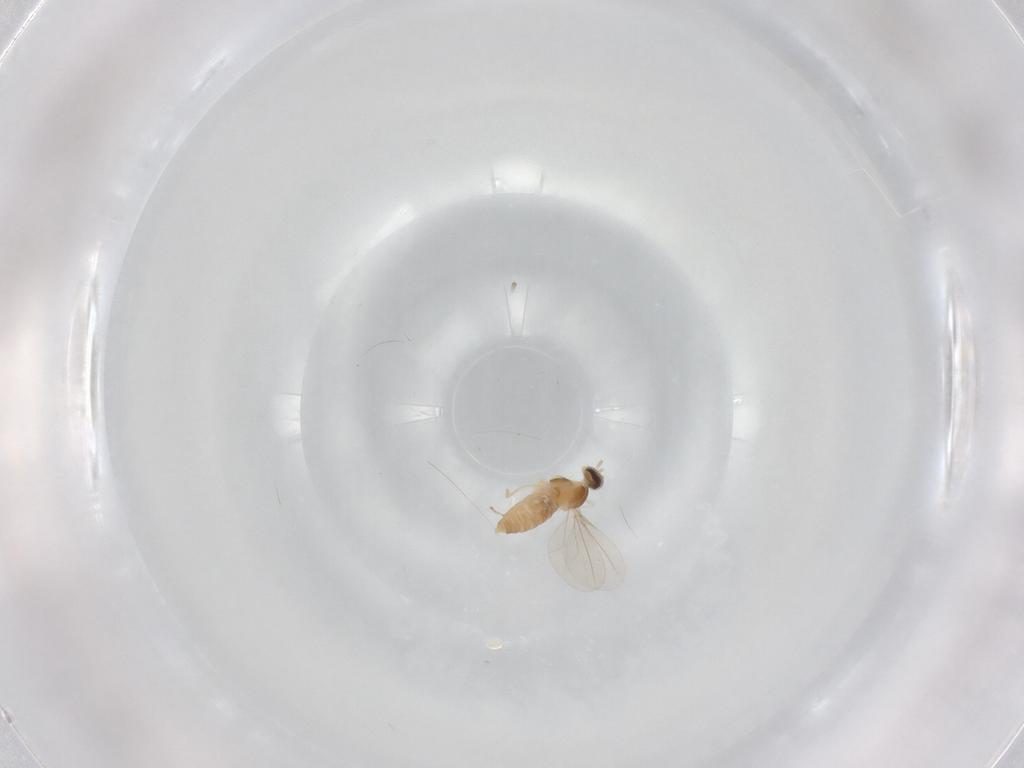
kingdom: Animalia
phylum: Arthropoda
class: Insecta
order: Diptera
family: Cecidomyiidae
